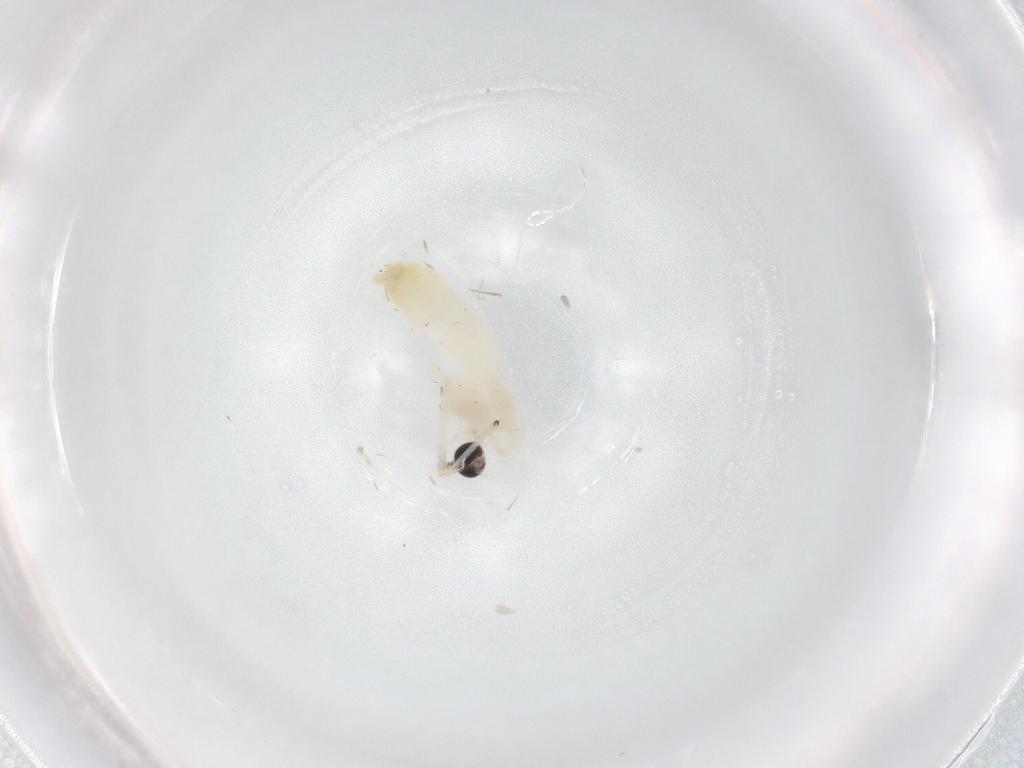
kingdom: Animalia
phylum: Arthropoda
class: Insecta
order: Diptera
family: Chironomidae
